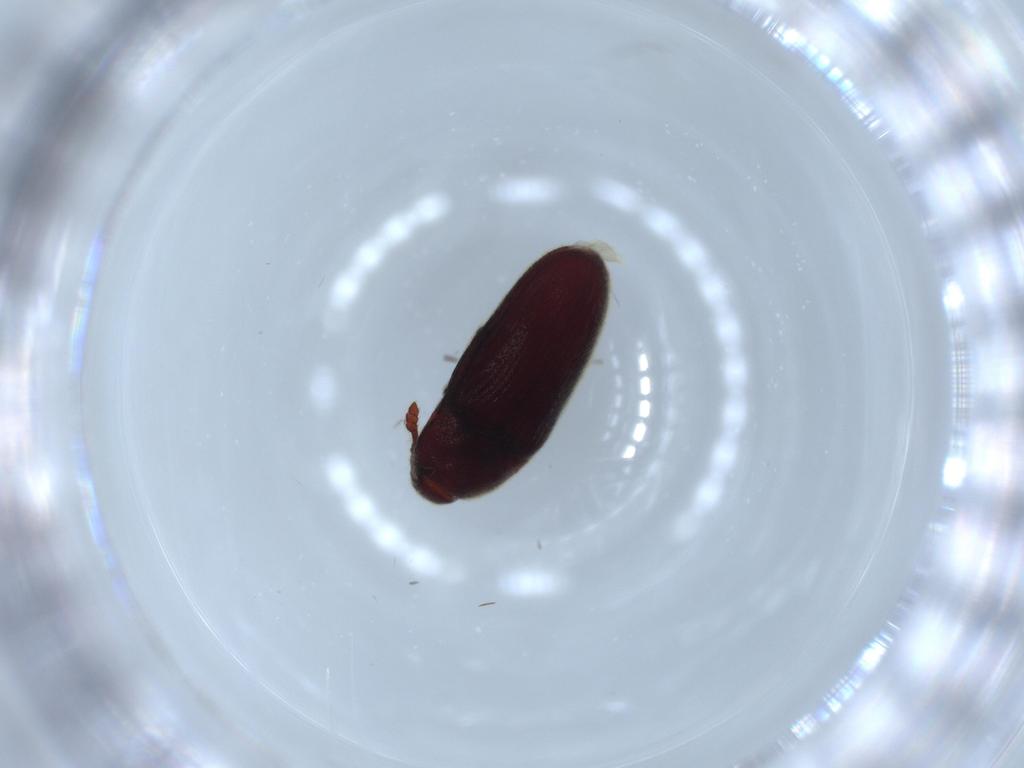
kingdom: Animalia
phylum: Arthropoda
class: Insecta
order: Coleoptera
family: Throscidae
